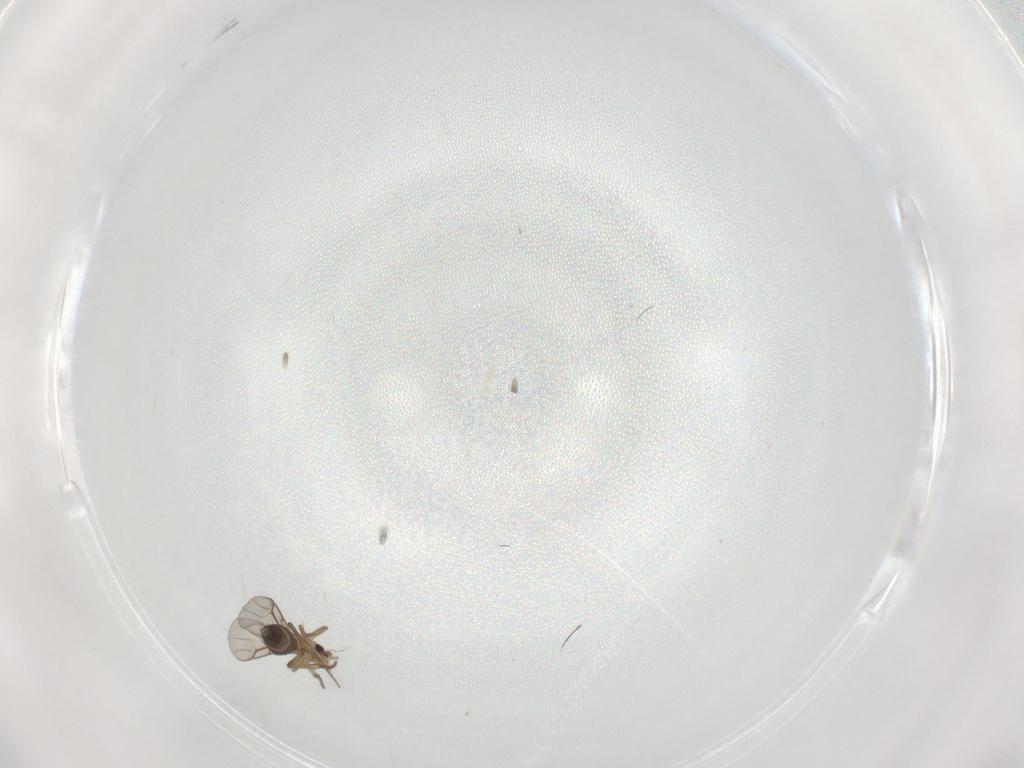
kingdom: Animalia
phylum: Arthropoda
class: Insecta
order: Diptera
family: Phoridae
